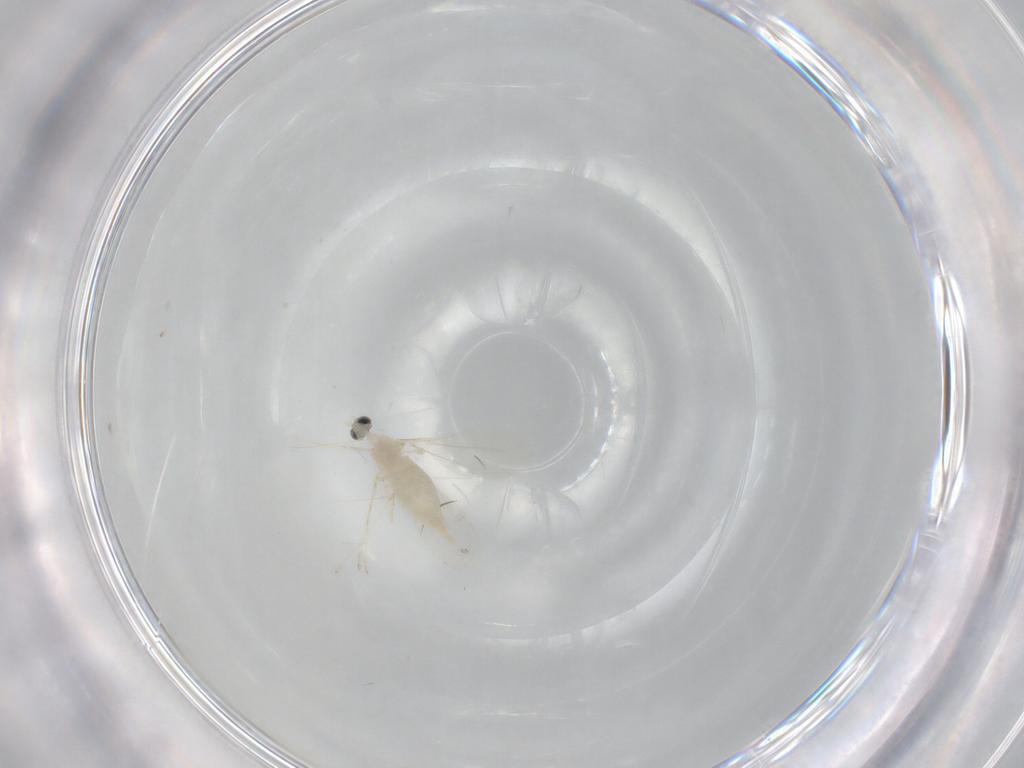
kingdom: Animalia
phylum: Arthropoda
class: Insecta
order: Diptera
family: Cecidomyiidae
